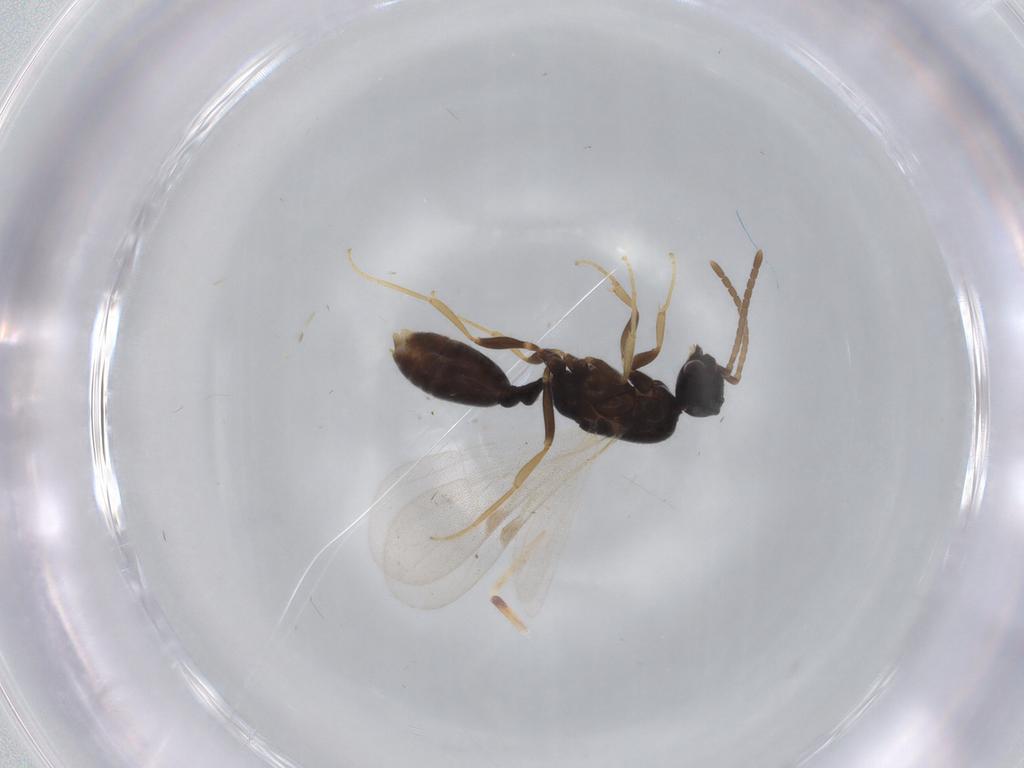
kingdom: Animalia
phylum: Arthropoda
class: Insecta
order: Hymenoptera
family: Formicidae
